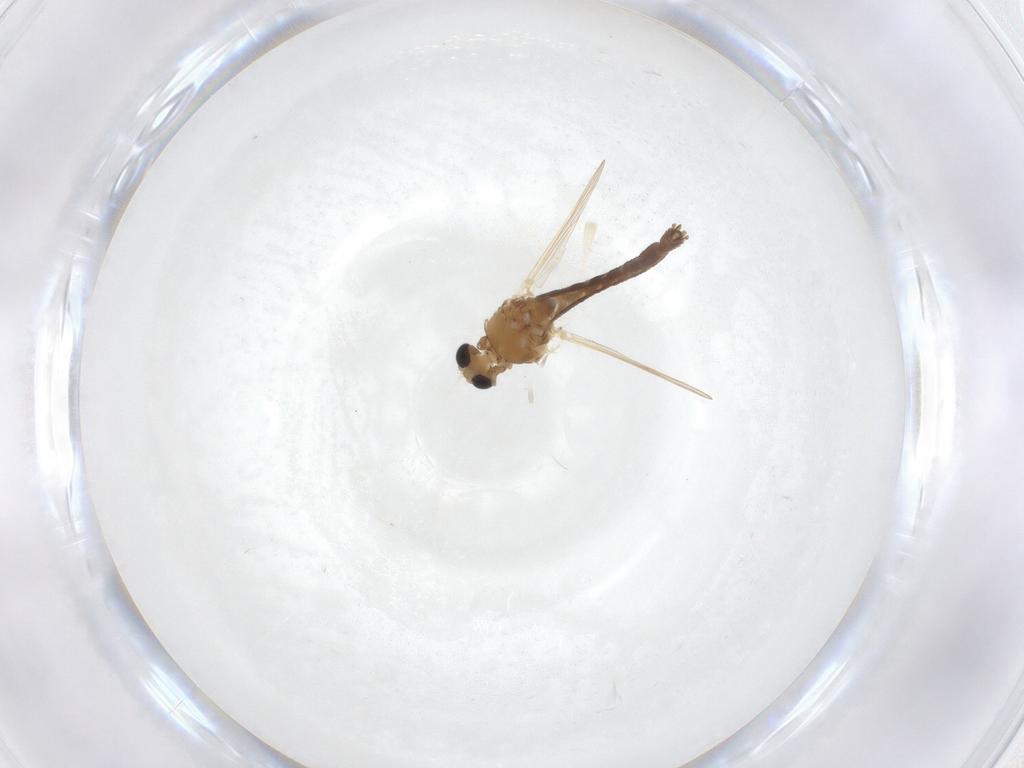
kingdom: Animalia
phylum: Arthropoda
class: Insecta
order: Diptera
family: Chironomidae
